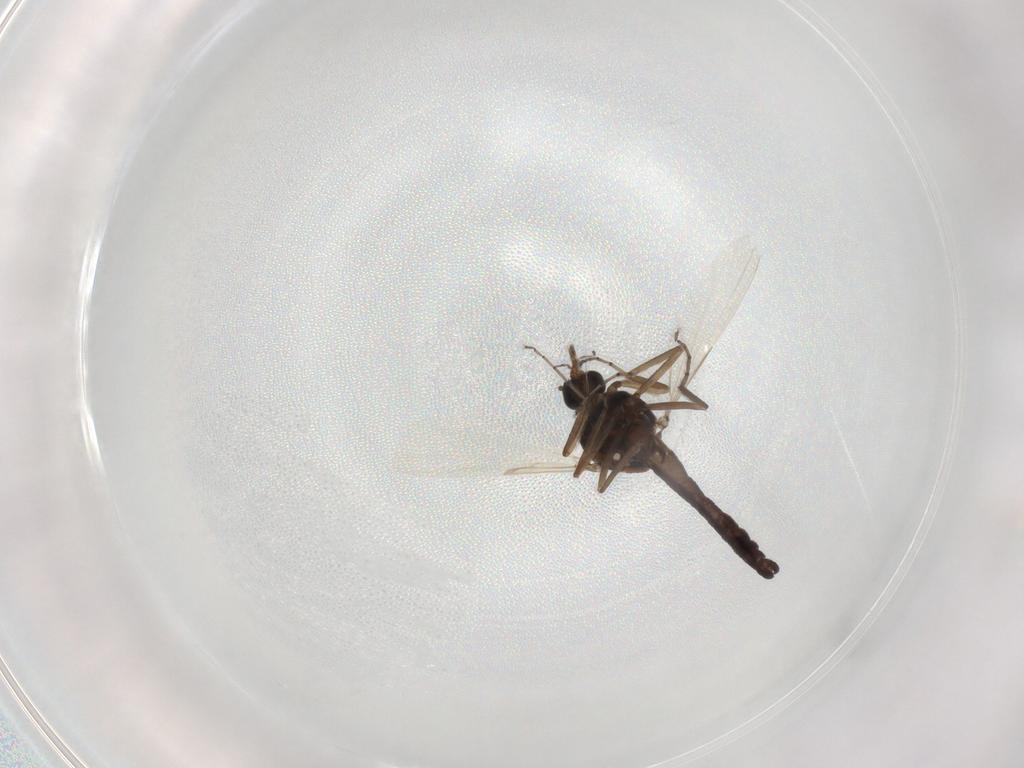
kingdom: Animalia
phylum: Arthropoda
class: Insecta
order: Diptera
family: Ceratopogonidae
